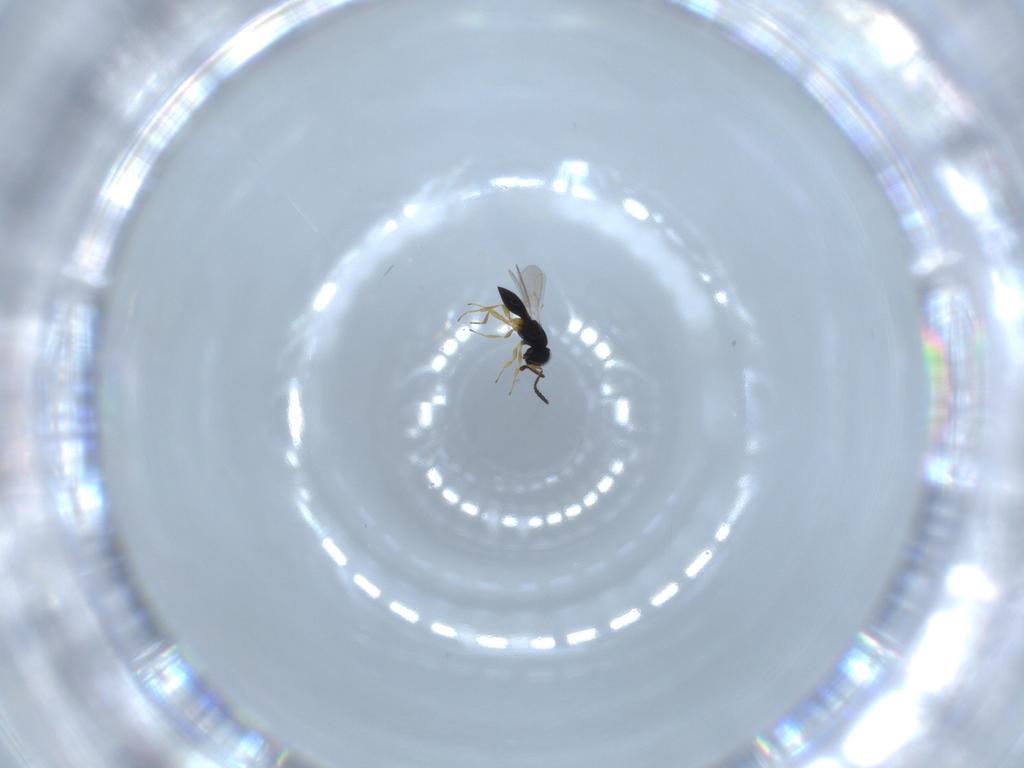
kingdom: Animalia
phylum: Arthropoda
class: Insecta
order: Hymenoptera
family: Scelionidae
